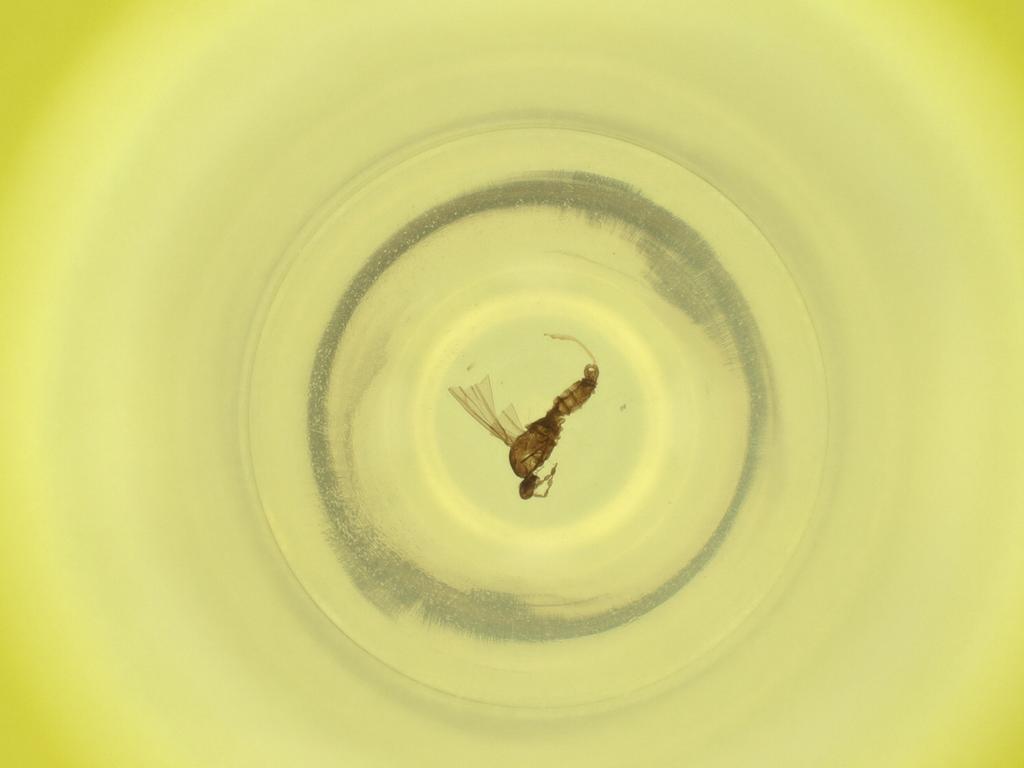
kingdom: Animalia
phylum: Arthropoda
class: Insecta
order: Diptera
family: Cecidomyiidae
